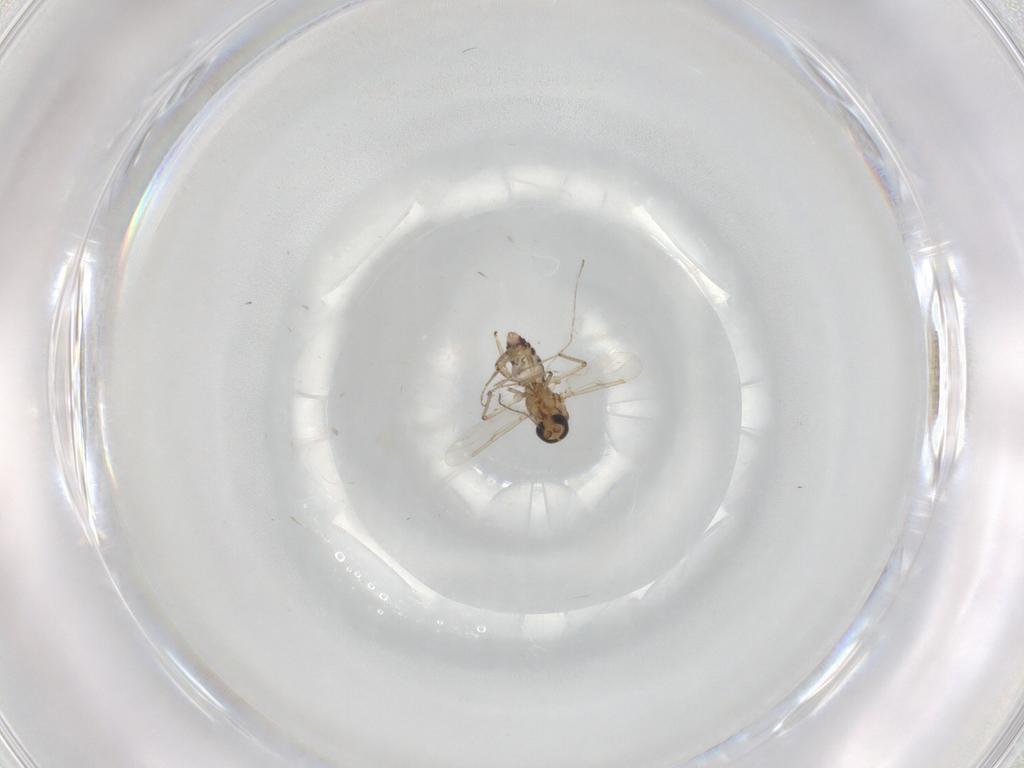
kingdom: Animalia
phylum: Arthropoda
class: Insecta
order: Diptera
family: Ceratopogonidae
